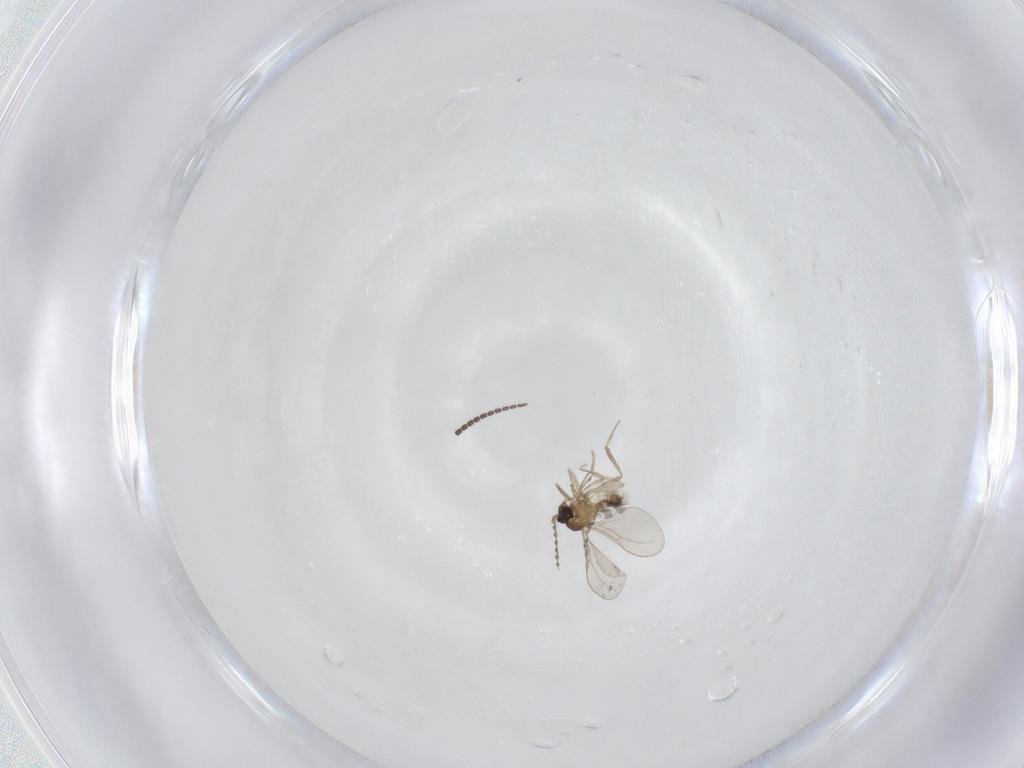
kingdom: Animalia
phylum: Arthropoda
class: Insecta
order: Diptera
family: Cecidomyiidae
